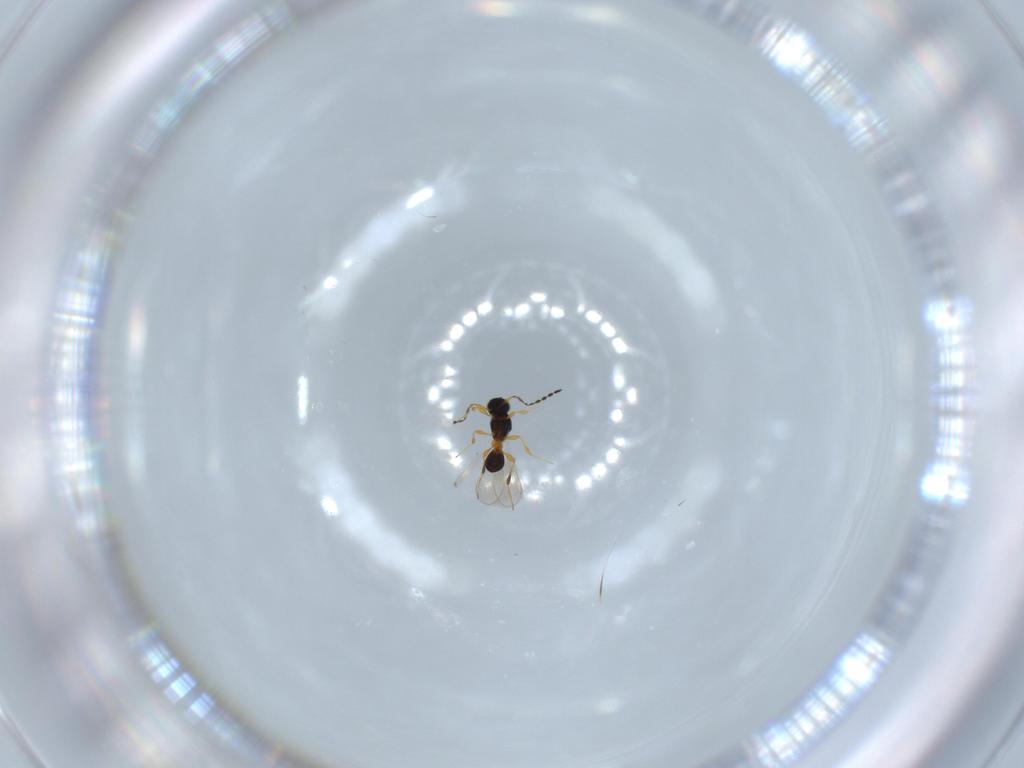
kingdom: Animalia
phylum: Arthropoda
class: Insecta
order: Hymenoptera
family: Platygastridae
